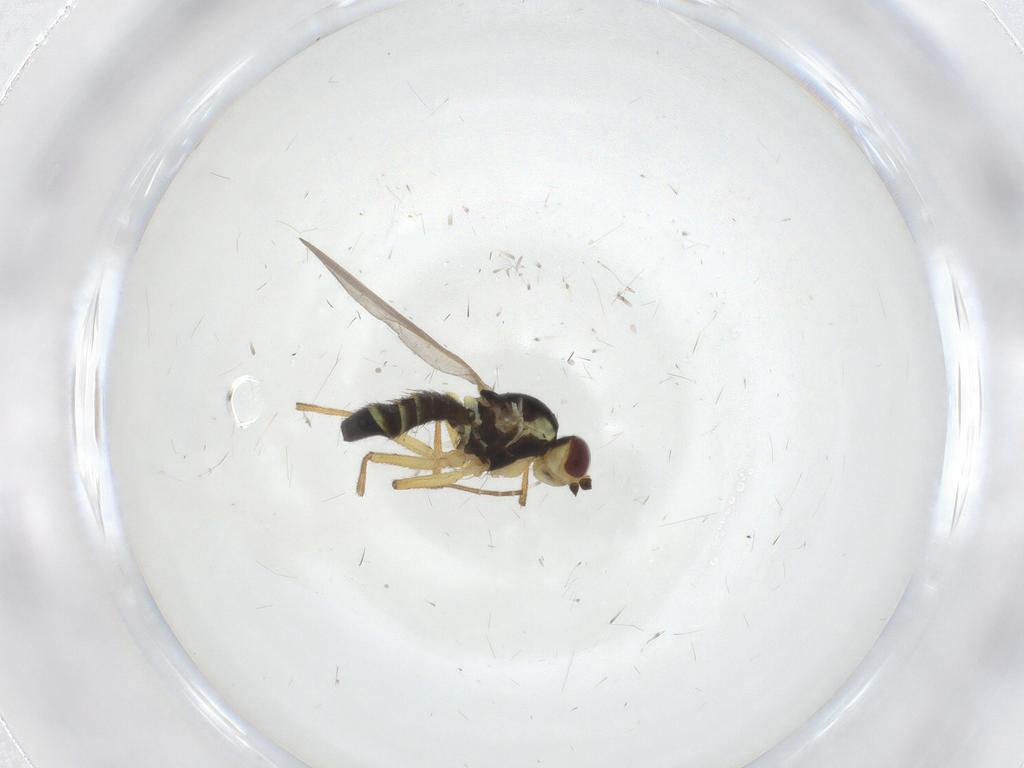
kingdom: Animalia
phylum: Arthropoda
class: Insecta
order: Diptera
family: Agromyzidae
